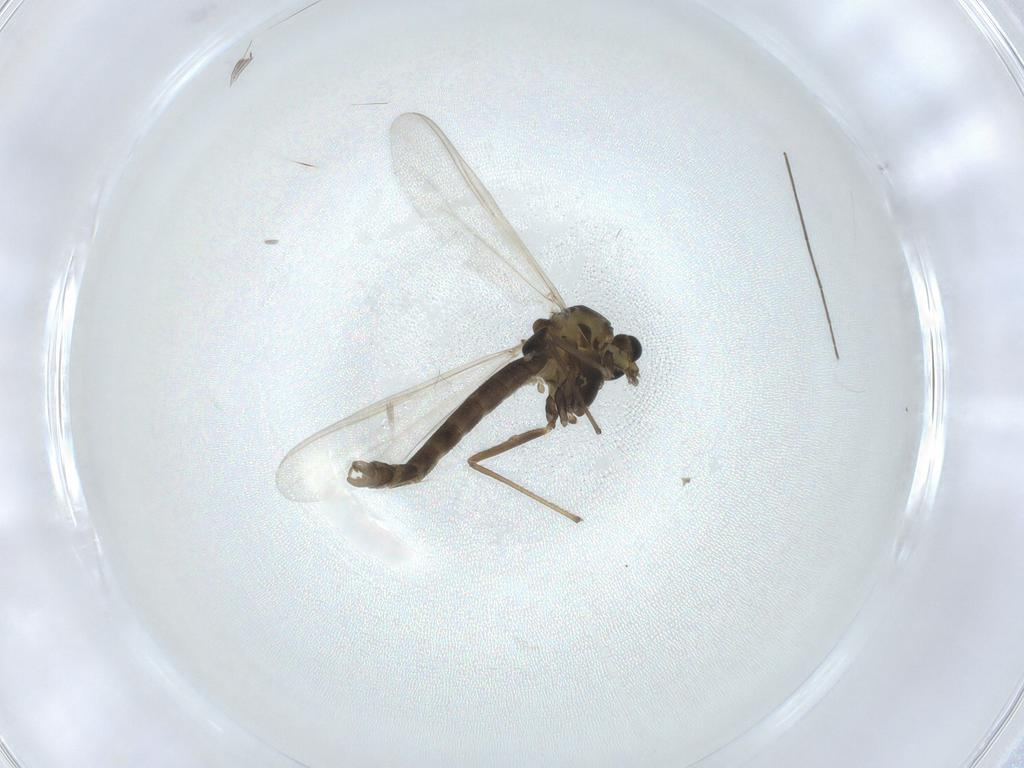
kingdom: Animalia
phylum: Arthropoda
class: Insecta
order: Diptera
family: Chironomidae
